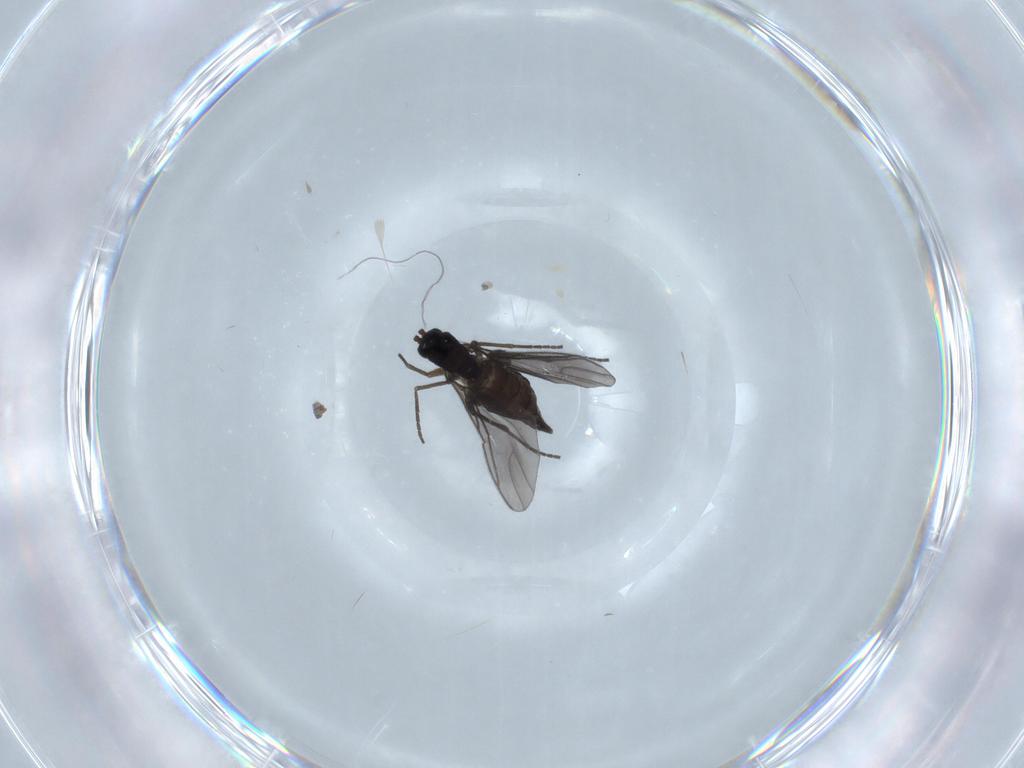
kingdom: Animalia
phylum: Arthropoda
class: Insecta
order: Diptera
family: Sciaridae
